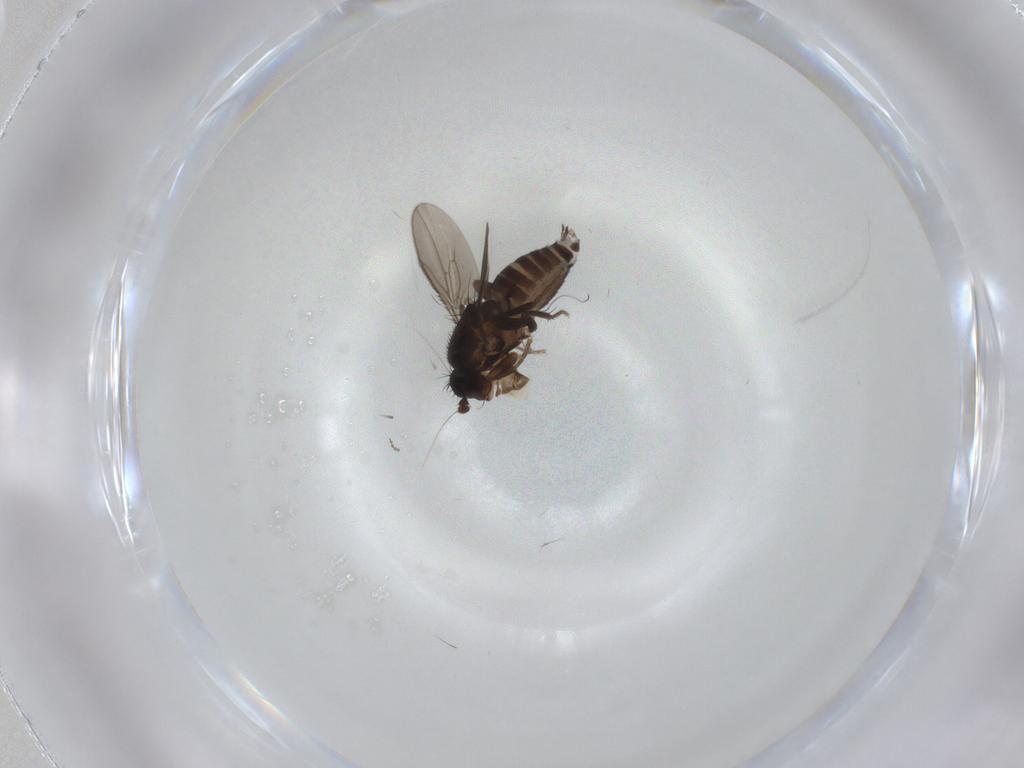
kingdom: Animalia
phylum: Arthropoda
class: Insecta
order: Diptera
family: Sphaeroceridae
